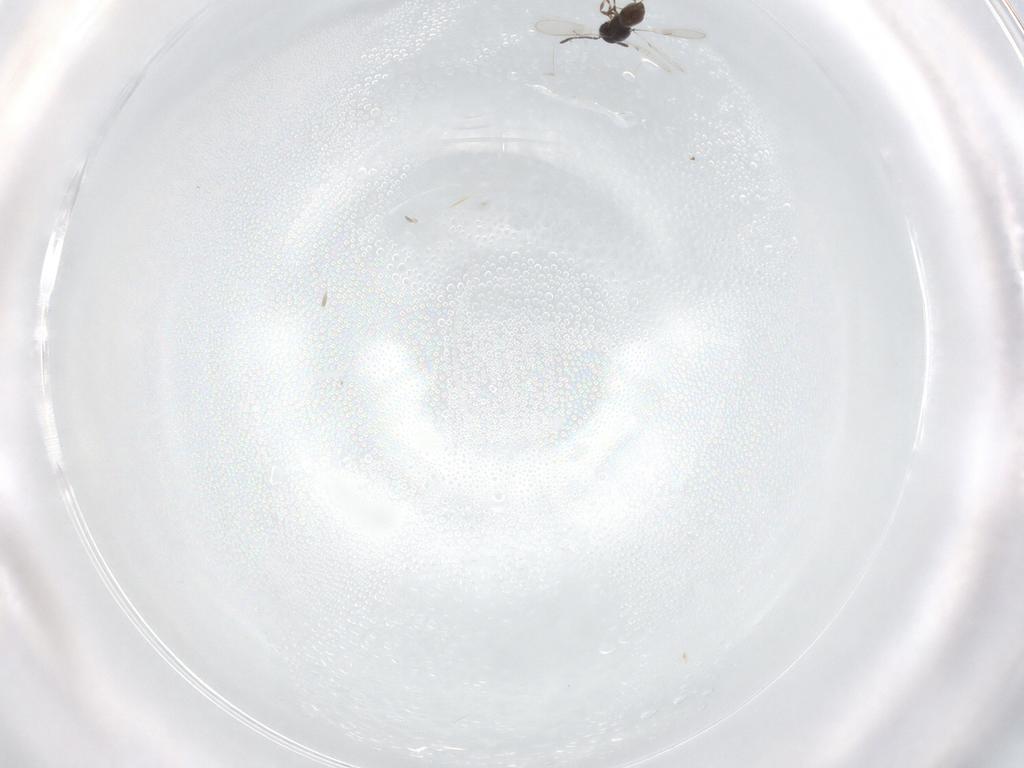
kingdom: Animalia
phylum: Arthropoda
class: Insecta
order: Hymenoptera
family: Scelionidae
